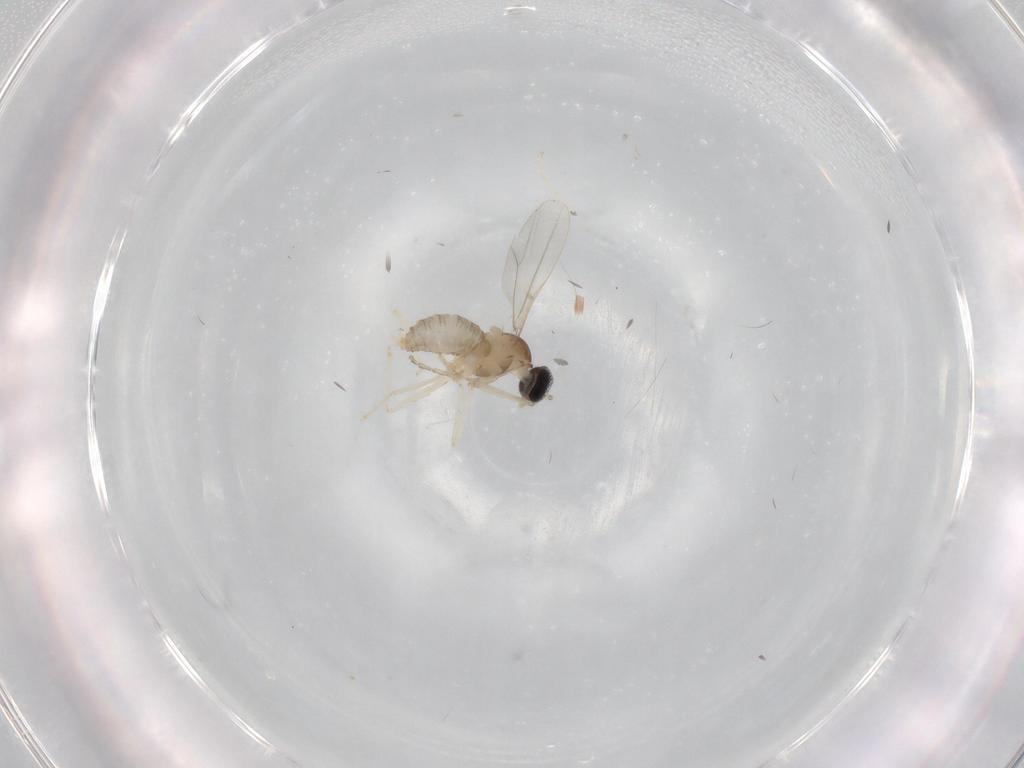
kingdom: Animalia
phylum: Arthropoda
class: Insecta
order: Diptera
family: Cecidomyiidae
